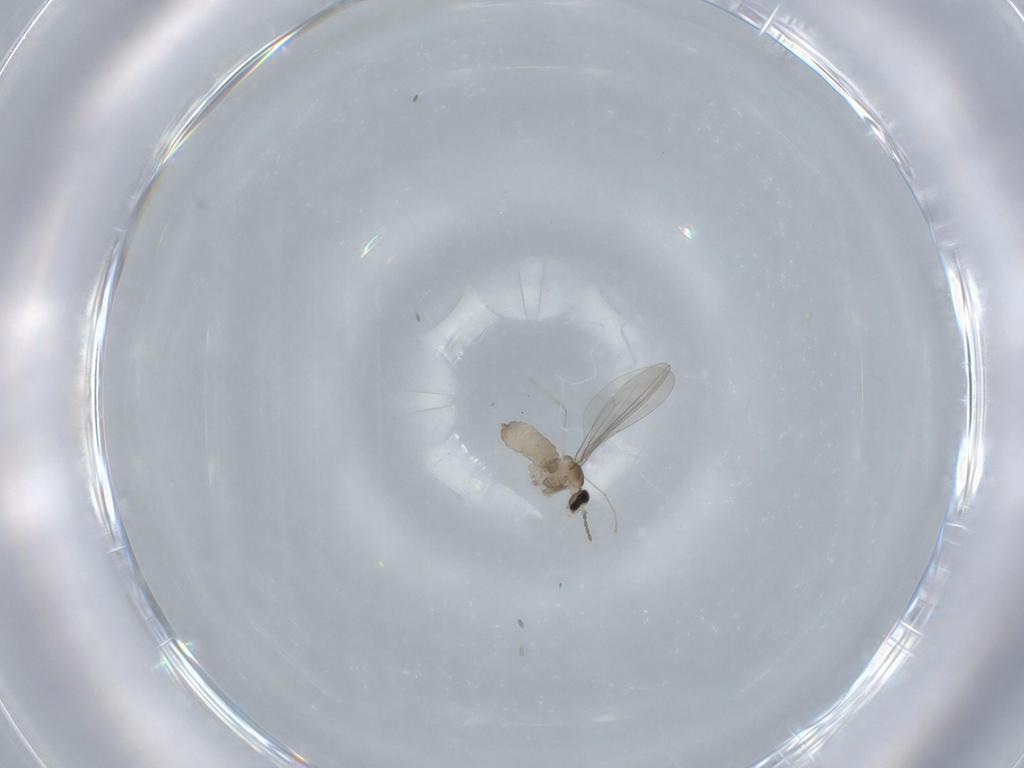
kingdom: Animalia
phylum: Arthropoda
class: Insecta
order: Diptera
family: Cecidomyiidae
